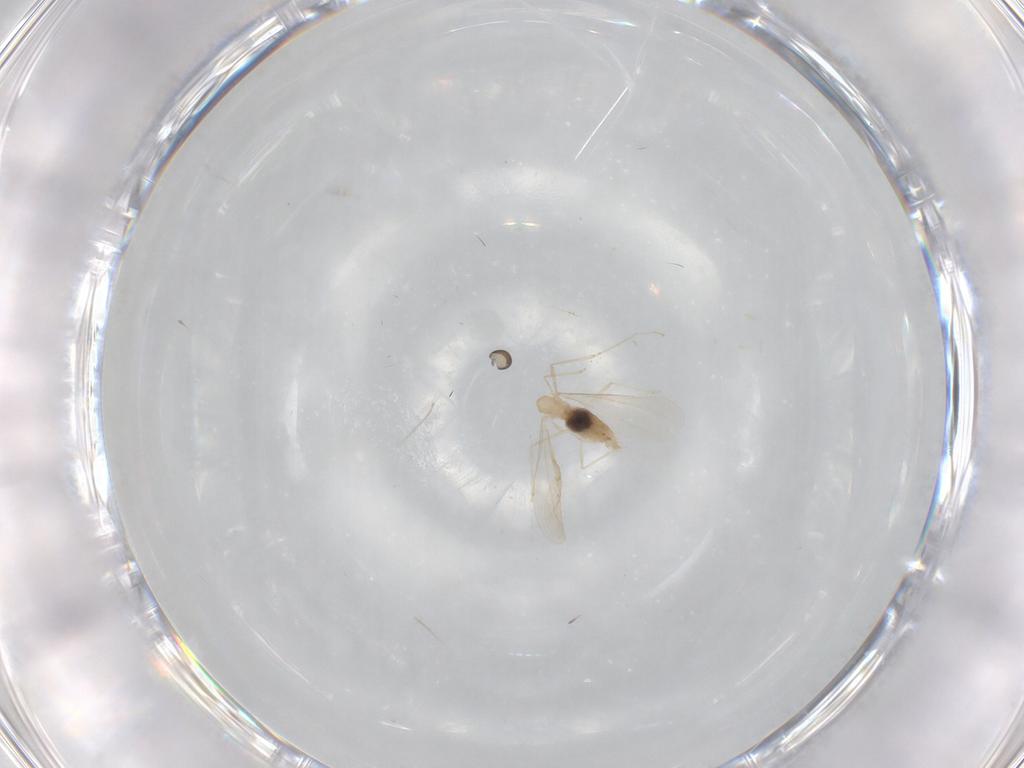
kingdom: Animalia
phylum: Arthropoda
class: Insecta
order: Diptera
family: Limoniidae
